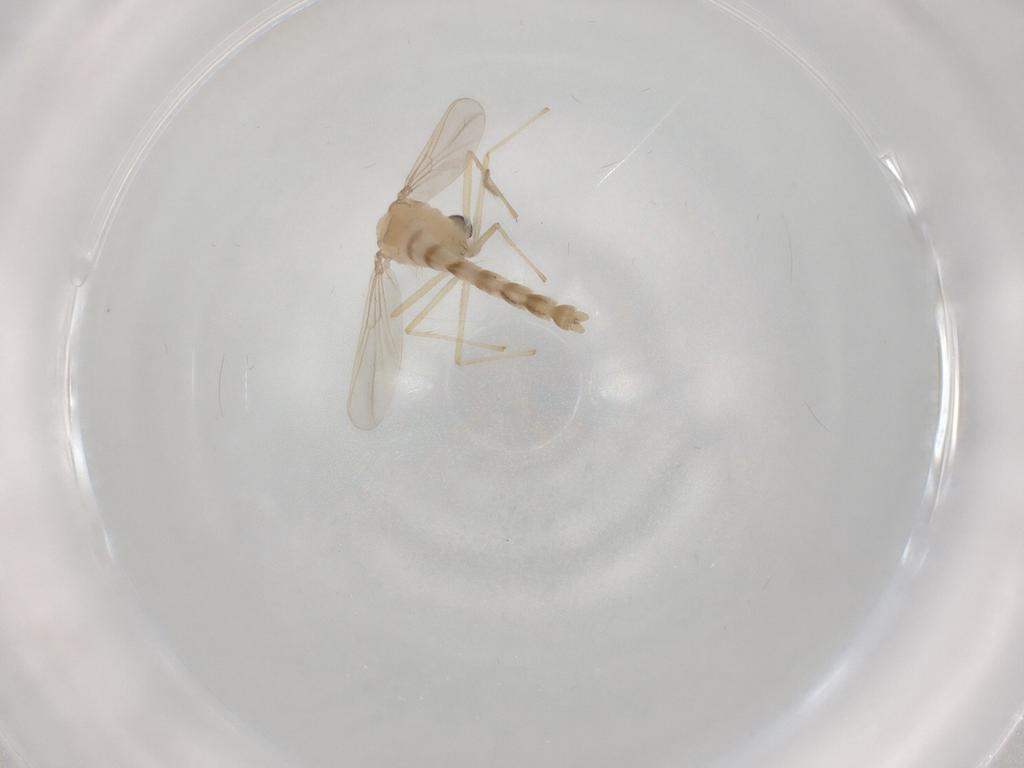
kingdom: Animalia
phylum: Arthropoda
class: Insecta
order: Diptera
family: Chironomidae
